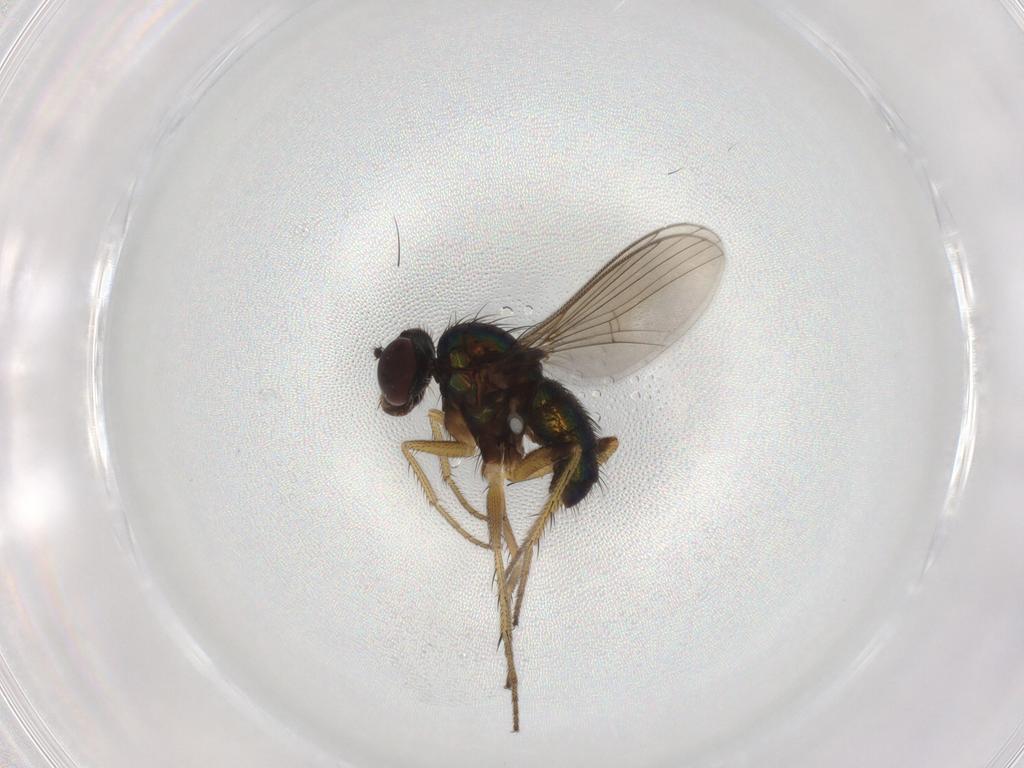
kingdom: Animalia
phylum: Arthropoda
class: Insecta
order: Diptera
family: Dolichopodidae
